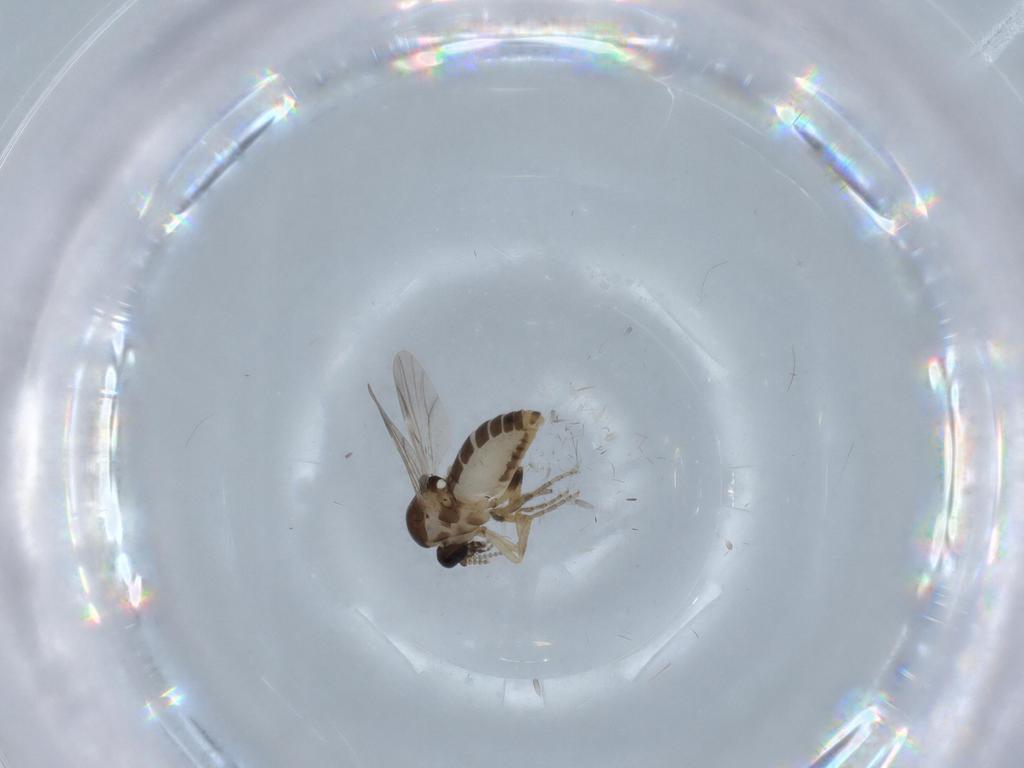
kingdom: Animalia
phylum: Arthropoda
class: Insecta
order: Diptera
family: Ceratopogonidae
